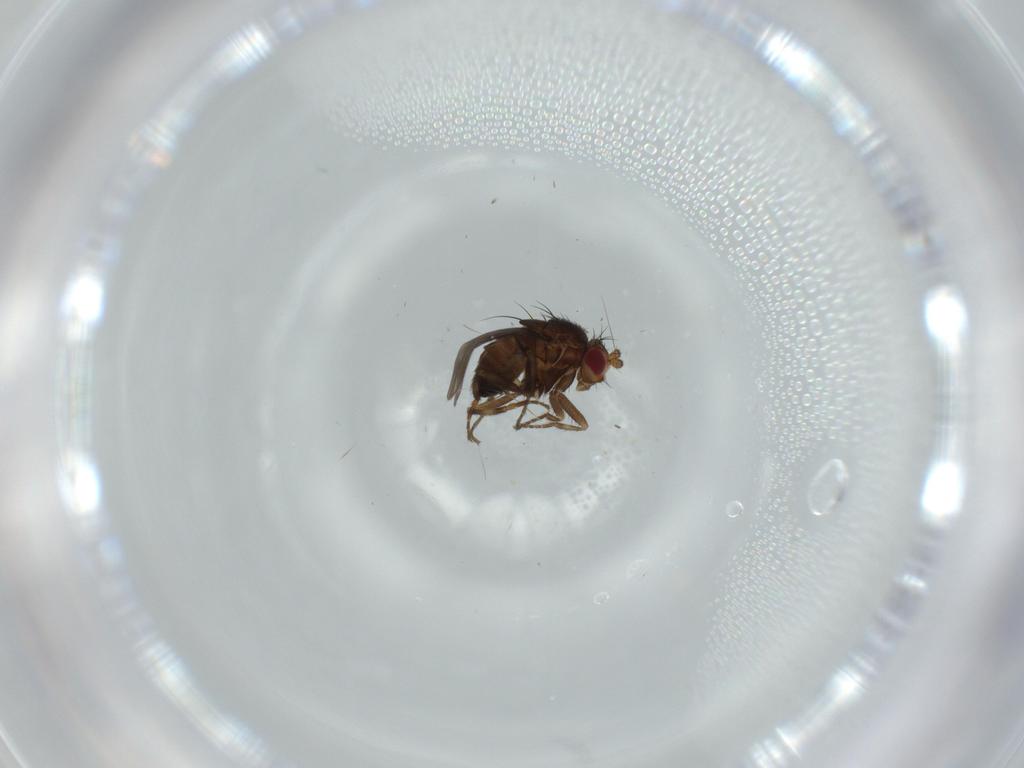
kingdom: Animalia
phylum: Arthropoda
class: Insecta
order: Diptera
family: Sphaeroceridae
